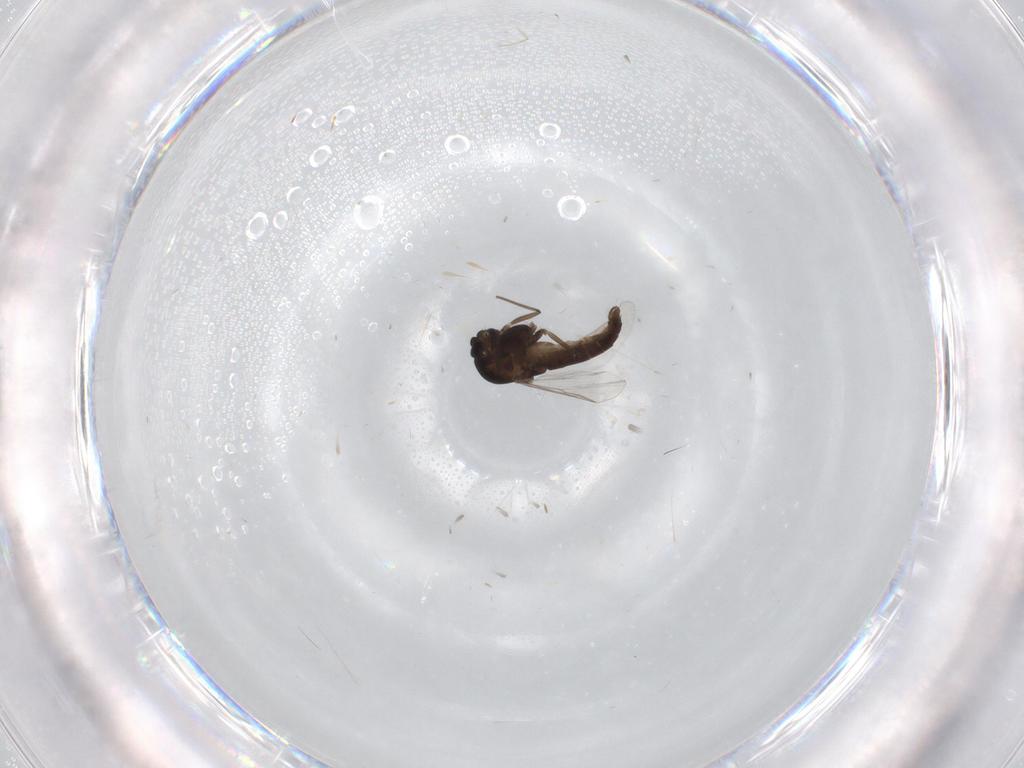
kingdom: Animalia
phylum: Arthropoda
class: Insecta
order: Diptera
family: Chironomidae
